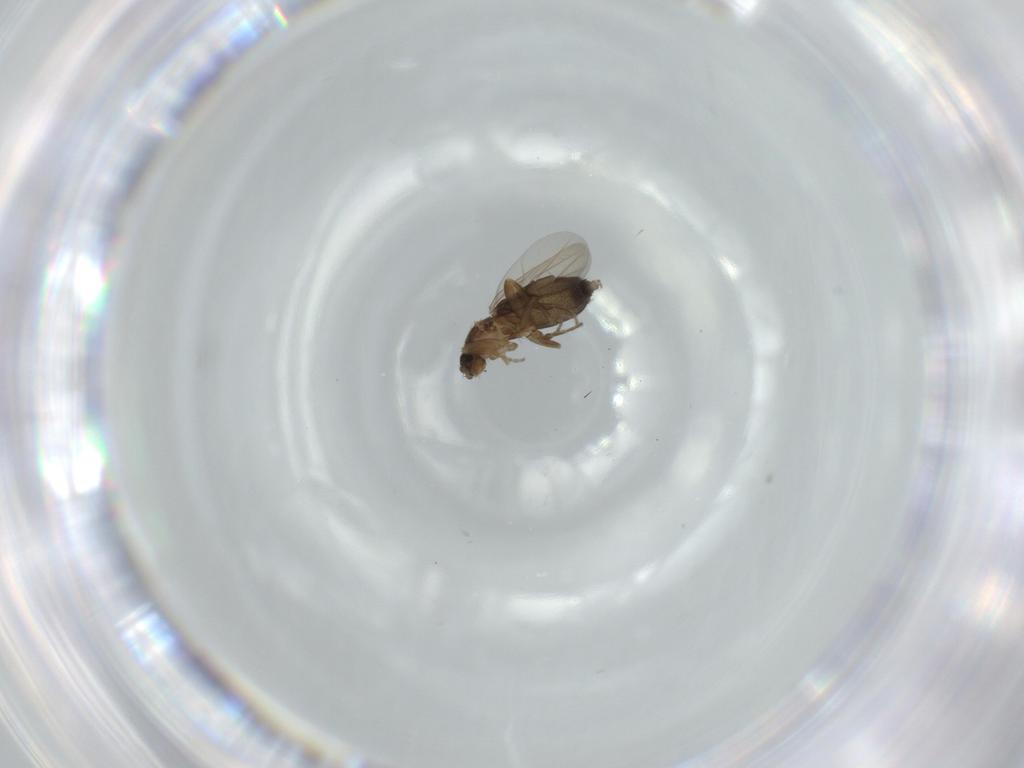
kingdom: Animalia
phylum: Arthropoda
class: Insecta
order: Diptera
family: Phoridae
